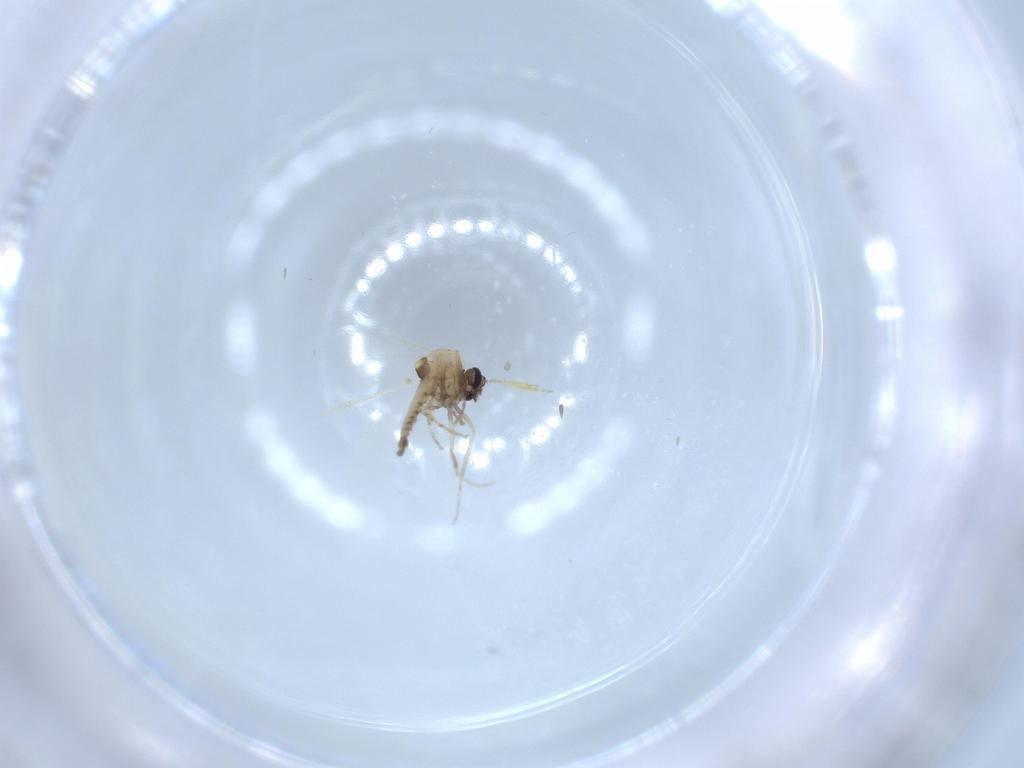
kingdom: Animalia
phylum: Arthropoda
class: Insecta
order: Diptera
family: Ceratopogonidae
